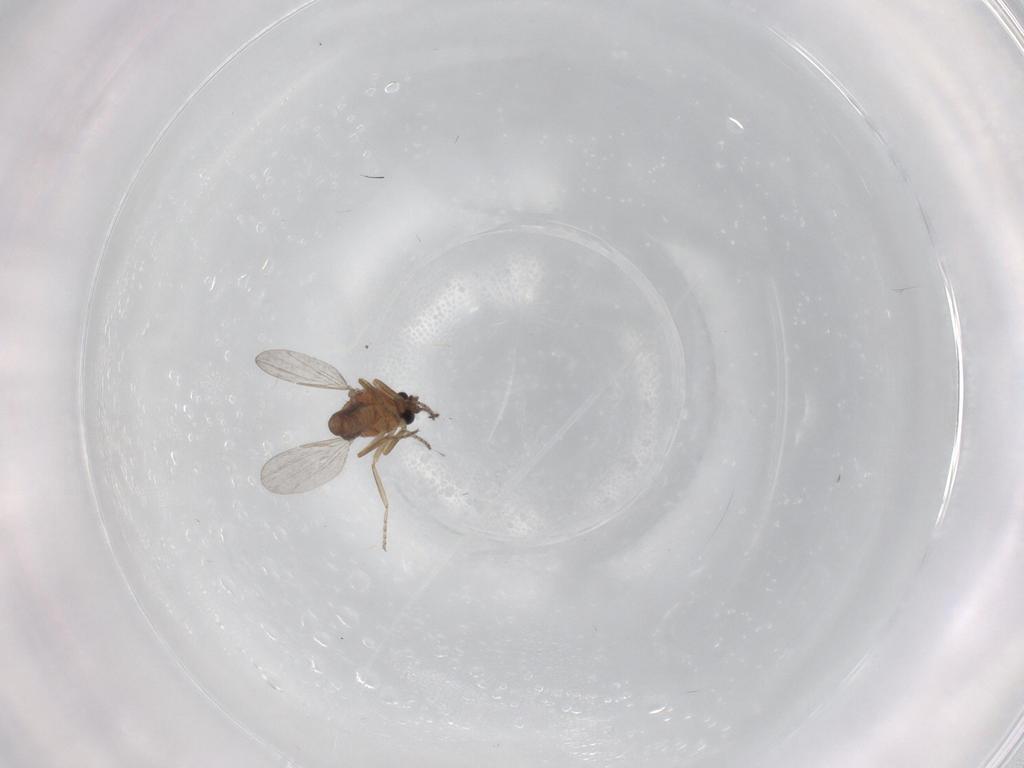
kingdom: Animalia
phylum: Arthropoda
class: Insecta
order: Diptera
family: Ceratopogonidae
